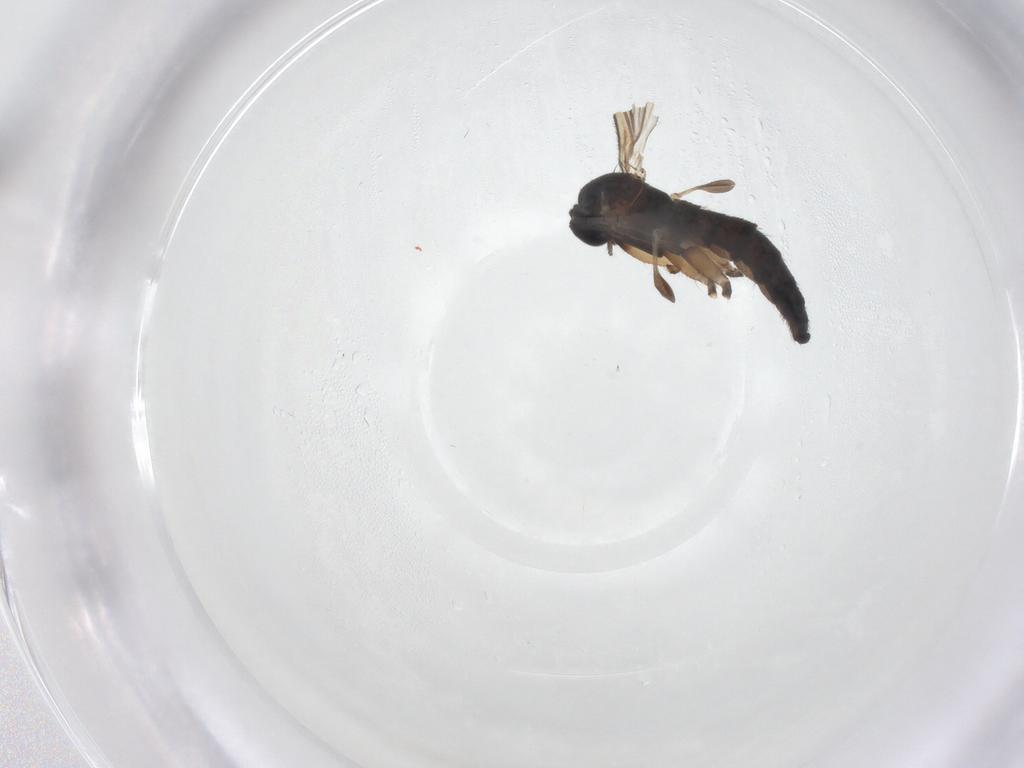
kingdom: Animalia
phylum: Arthropoda
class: Insecta
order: Diptera
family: Sciaridae
